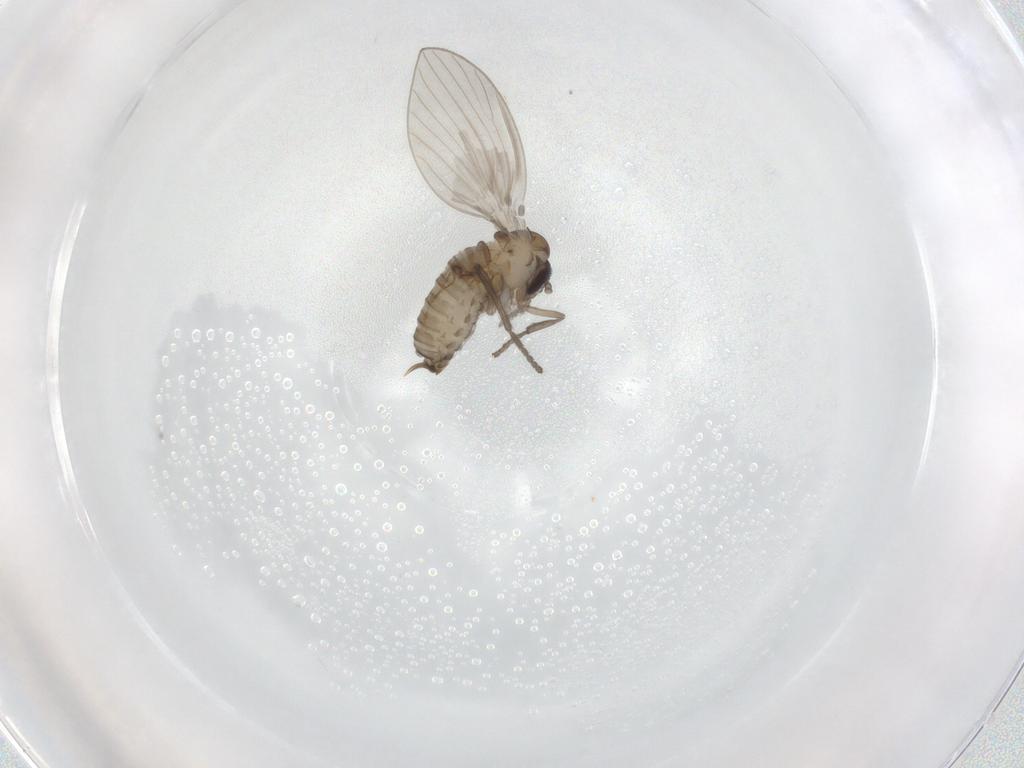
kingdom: Animalia
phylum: Arthropoda
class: Insecta
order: Diptera
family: Psychodidae
